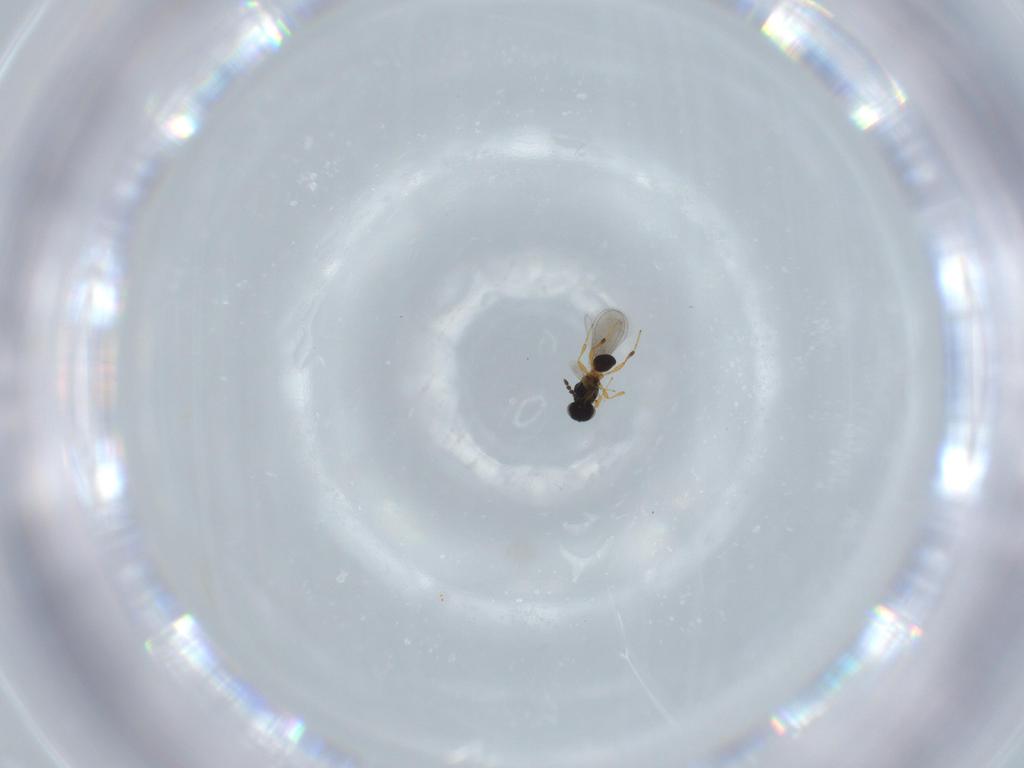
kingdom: Animalia
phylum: Arthropoda
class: Insecta
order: Hymenoptera
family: Platygastridae
